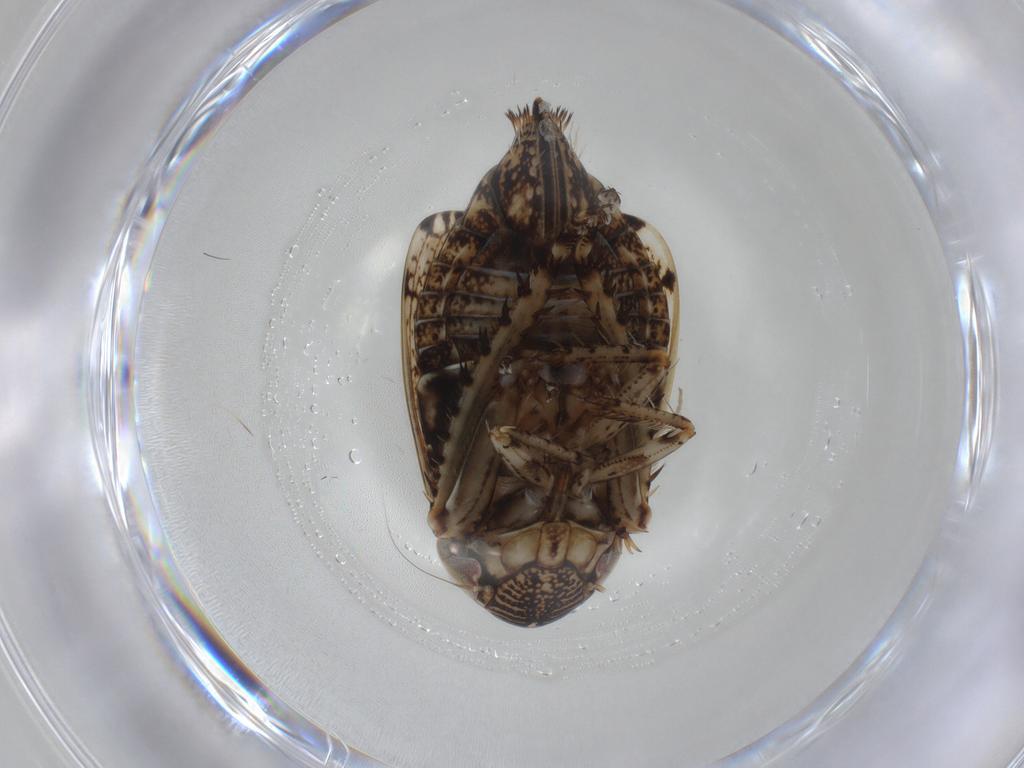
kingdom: Animalia
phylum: Arthropoda
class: Insecta
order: Hemiptera
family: Cicadellidae
